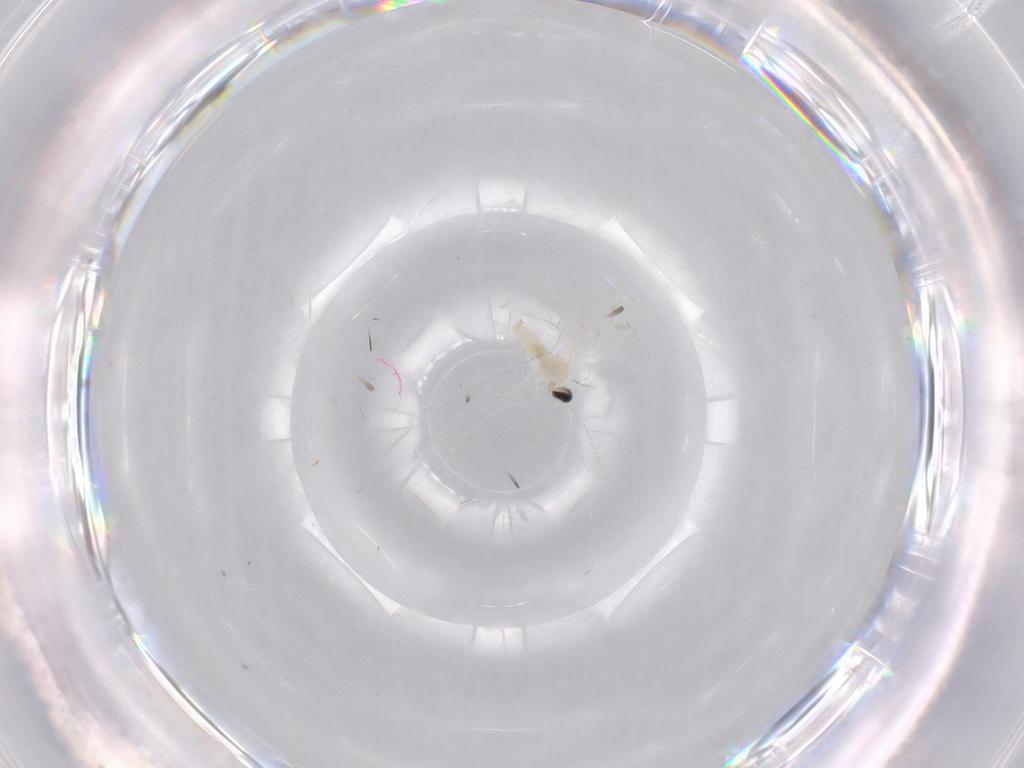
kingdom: Animalia
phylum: Arthropoda
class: Insecta
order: Diptera
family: Cecidomyiidae
